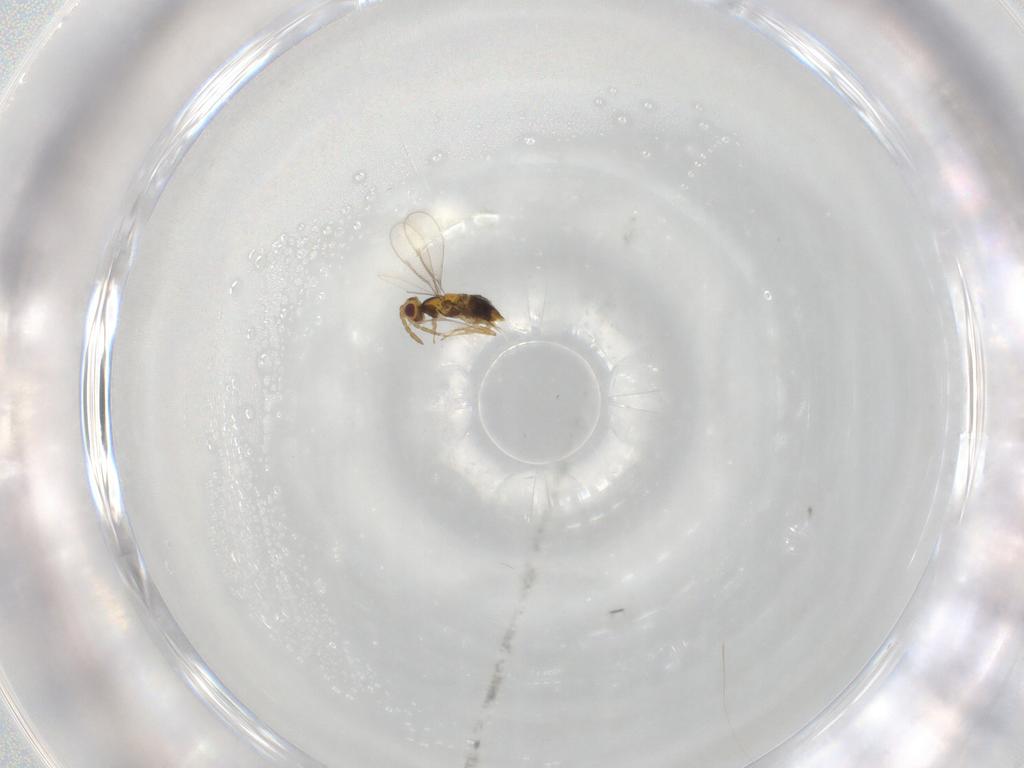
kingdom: Animalia
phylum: Arthropoda
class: Insecta
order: Hymenoptera
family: Aphelinidae
